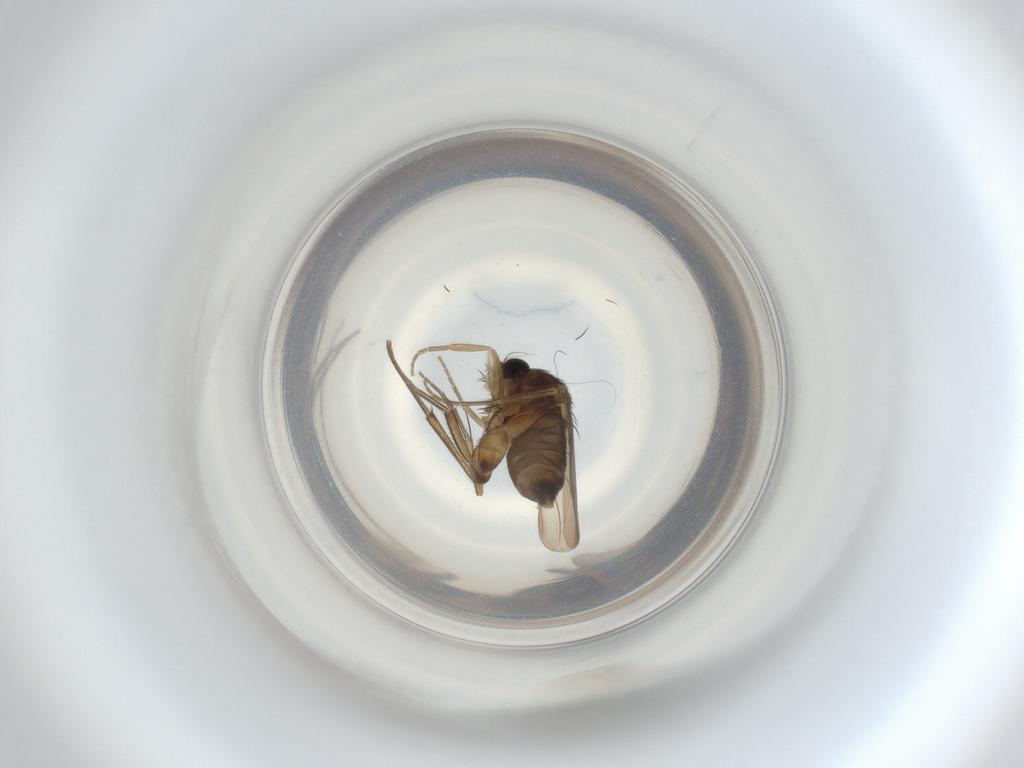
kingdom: Animalia
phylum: Arthropoda
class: Insecta
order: Diptera
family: Phoridae
